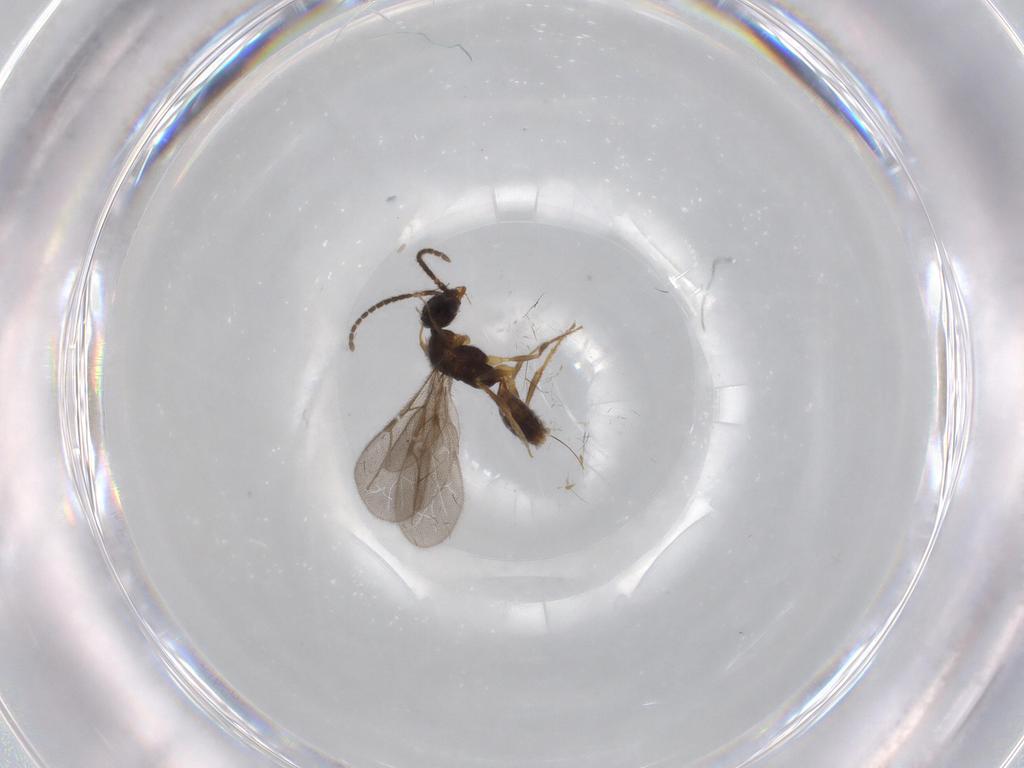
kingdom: Animalia
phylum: Arthropoda
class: Insecta
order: Hymenoptera
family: Bethylidae
